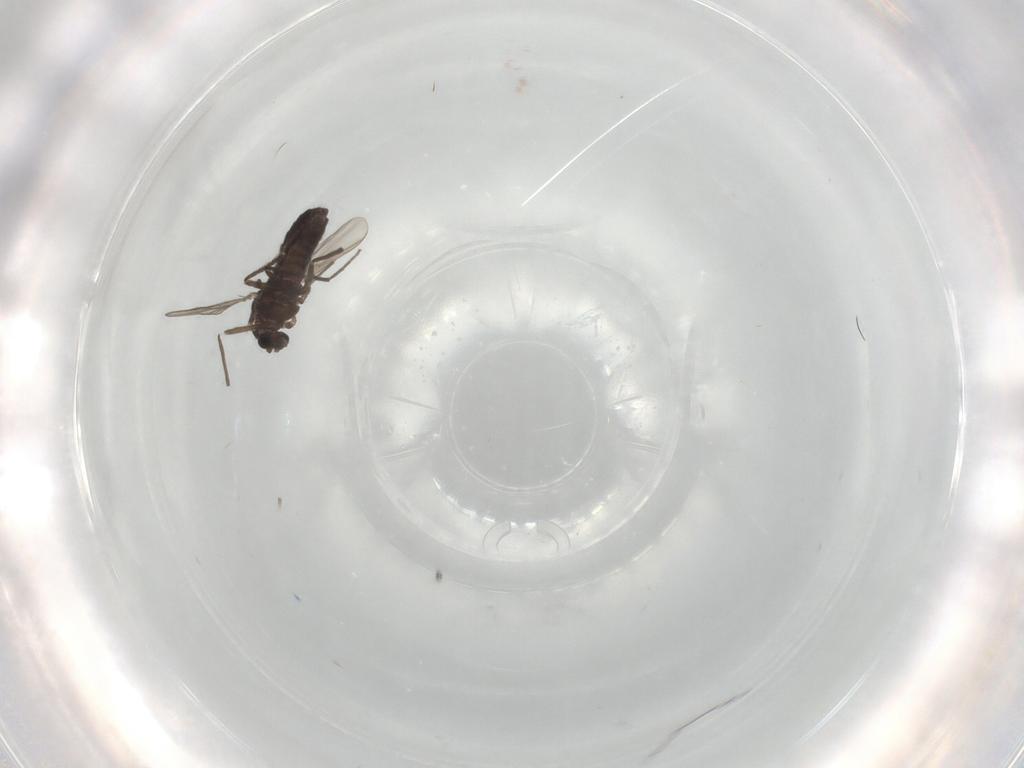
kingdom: Animalia
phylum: Arthropoda
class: Insecta
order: Diptera
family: Chironomidae
